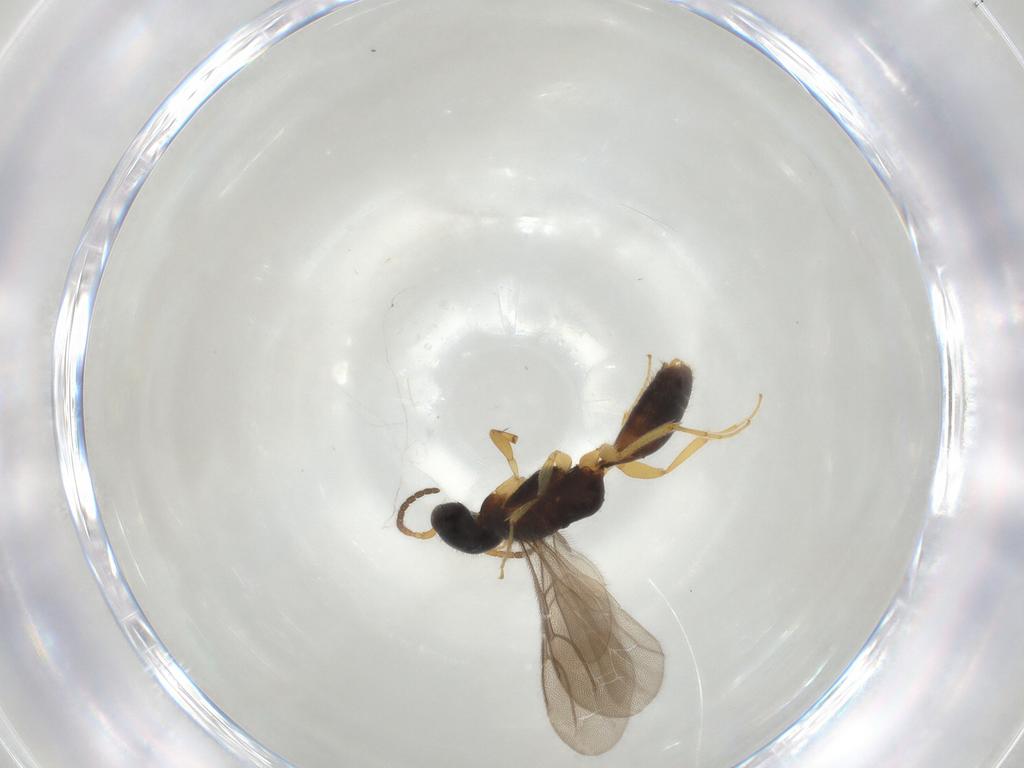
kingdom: Animalia
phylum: Arthropoda
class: Insecta
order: Hymenoptera
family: Bethylidae
